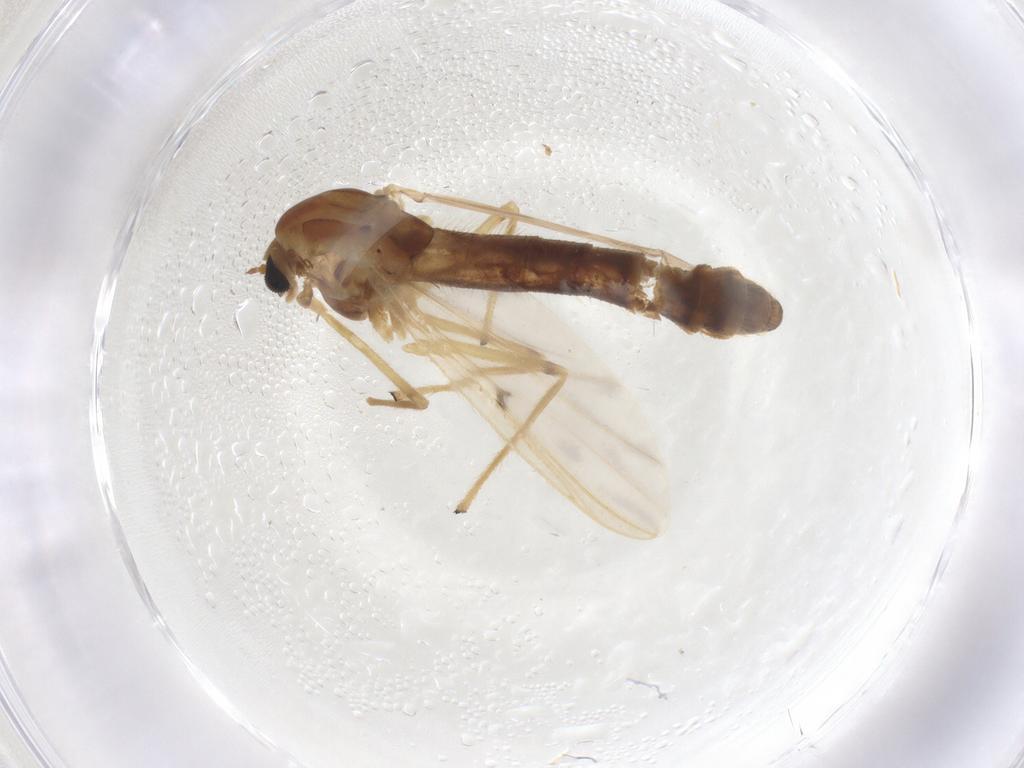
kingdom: Animalia
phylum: Arthropoda
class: Insecta
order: Diptera
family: Chironomidae
